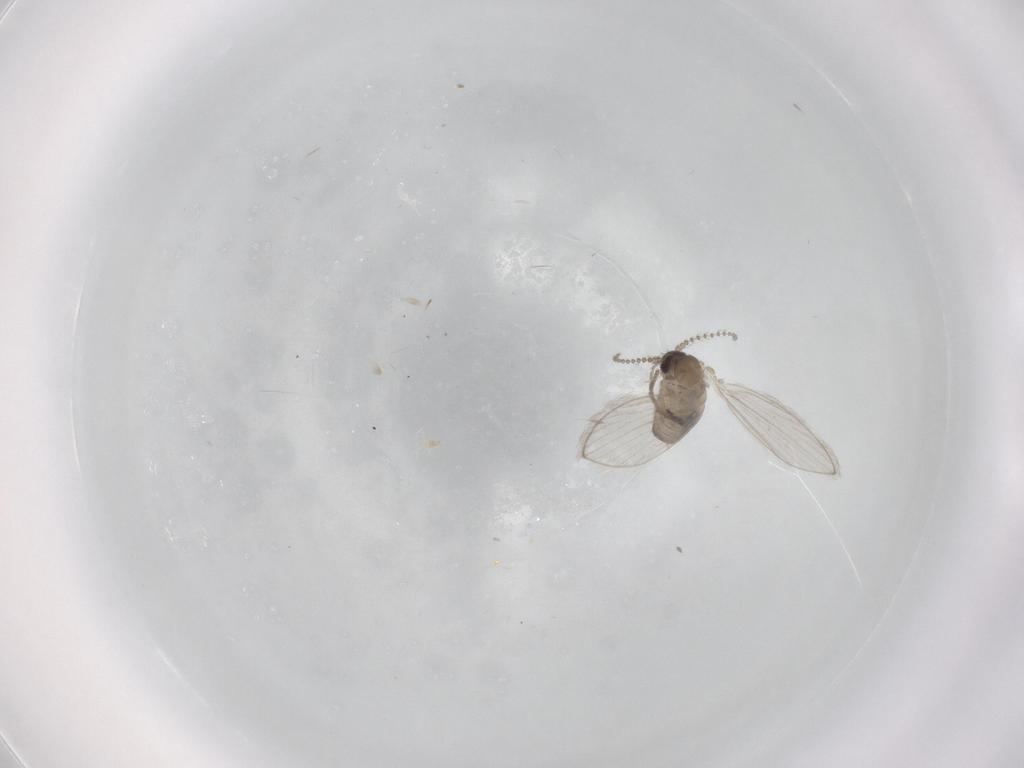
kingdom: Animalia
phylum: Arthropoda
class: Insecta
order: Diptera
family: Psychodidae
